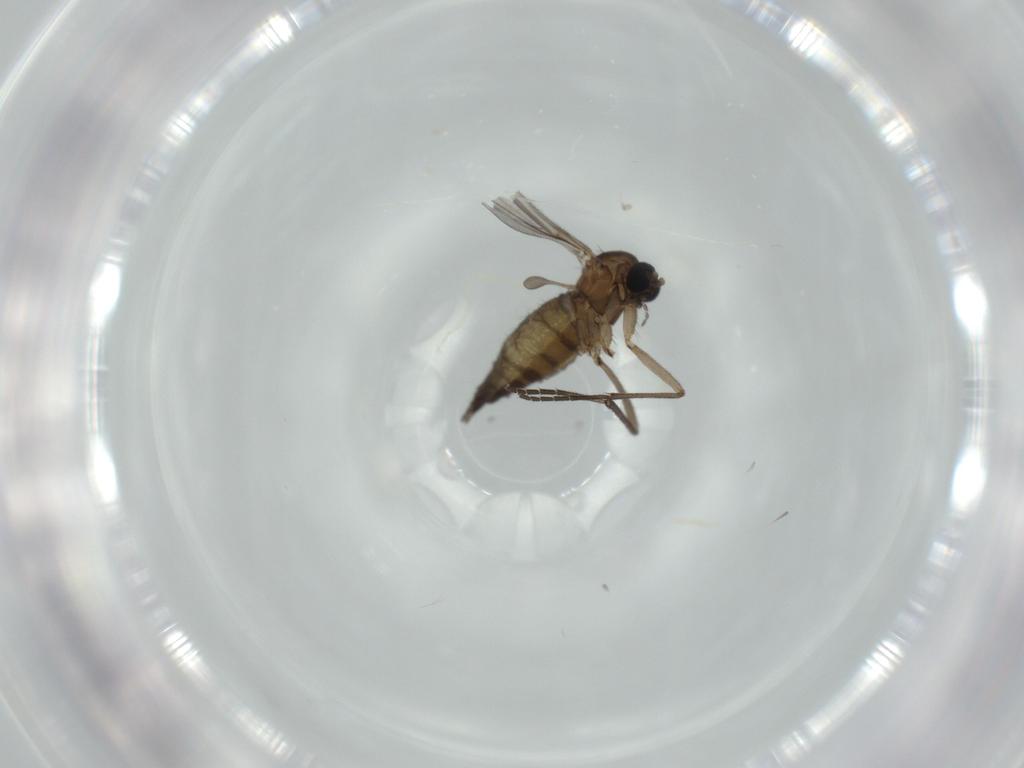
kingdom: Animalia
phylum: Arthropoda
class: Insecta
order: Diptera
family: Sciaridae
